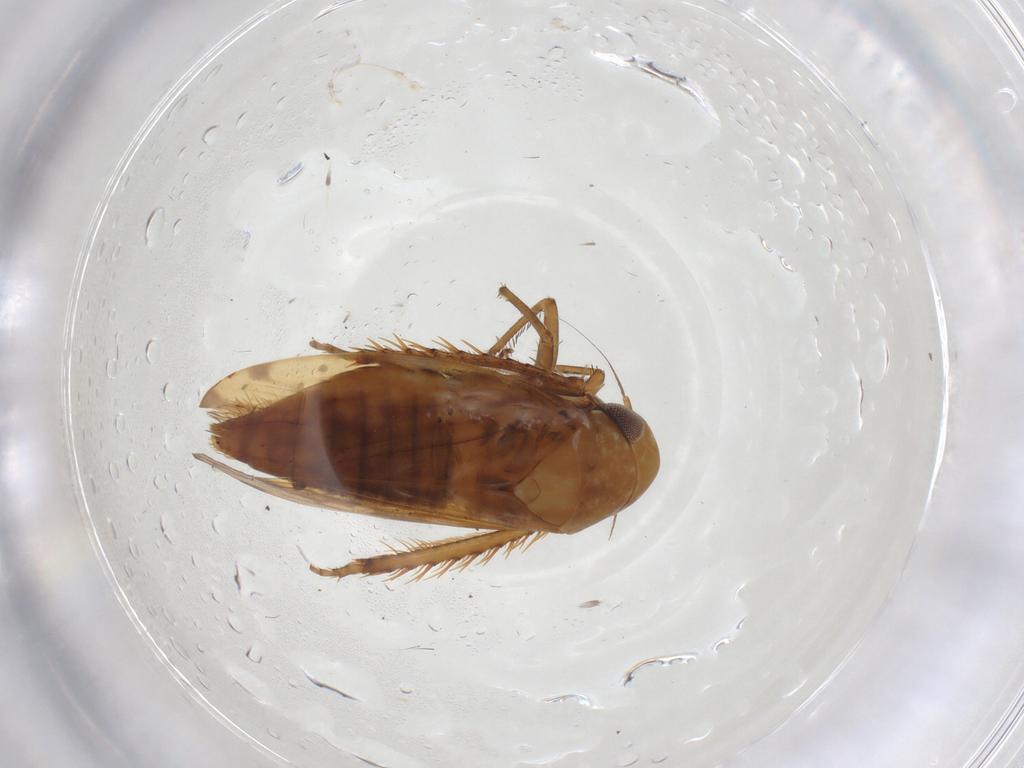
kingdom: Animalia
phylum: Arthropoda
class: Insecta
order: Hemiptera
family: Cicadellidae
